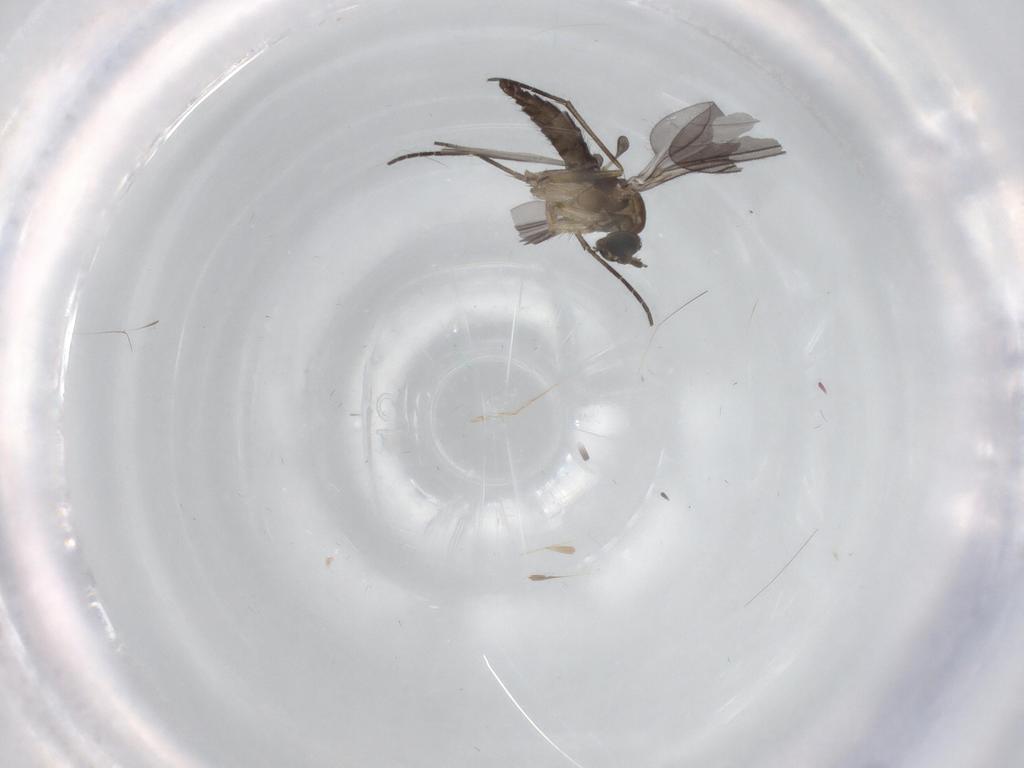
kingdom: Animalia
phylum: Arthropoda
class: Insecta
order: Diptera
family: Sciaridae
